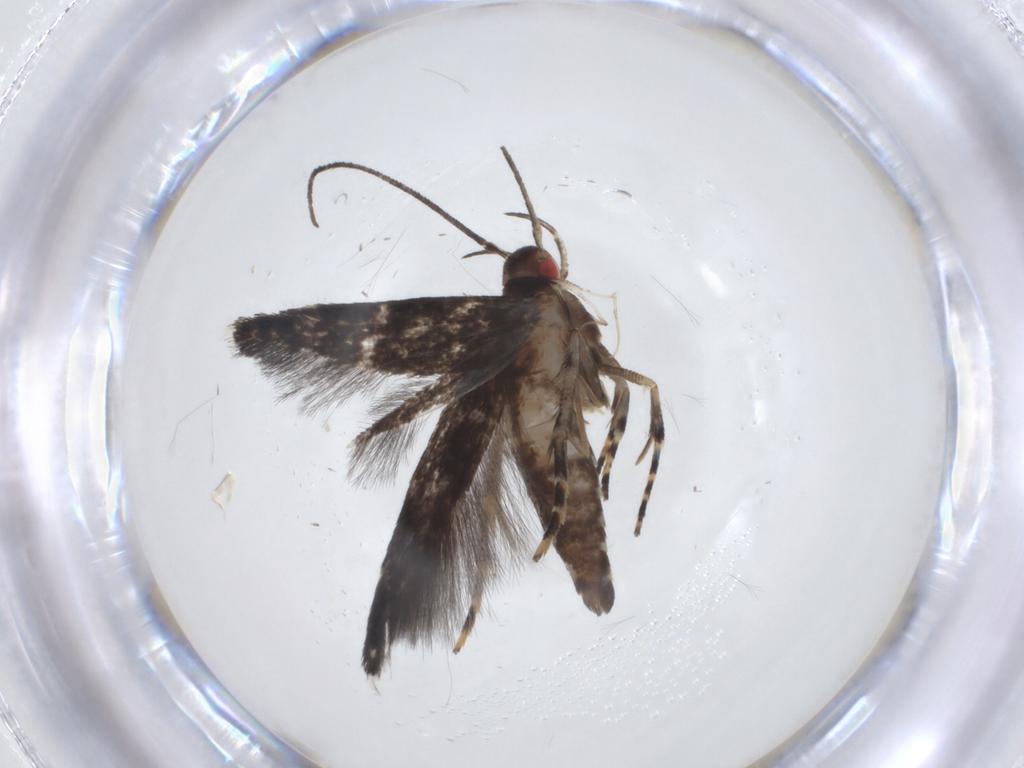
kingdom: Animalia
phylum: Arthropoda
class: Insecta
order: Lepidoptera
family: Cosmopterigidae
